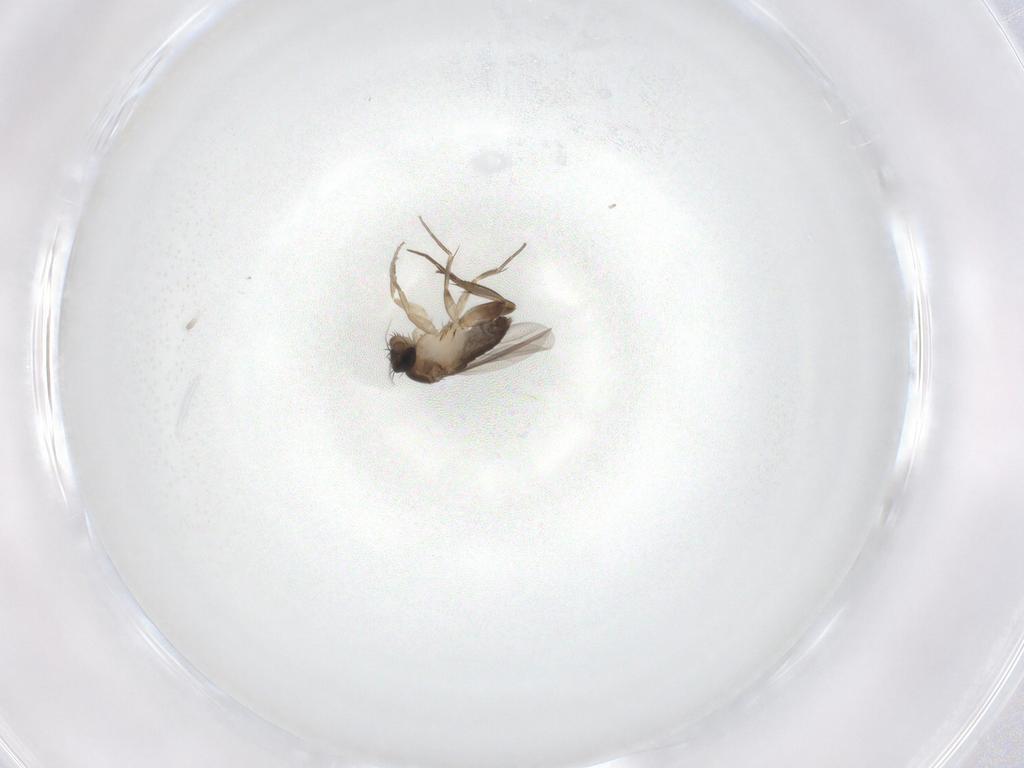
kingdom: Animalia
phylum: Arthropoda
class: Insecta
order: Diptera
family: Phoridae
